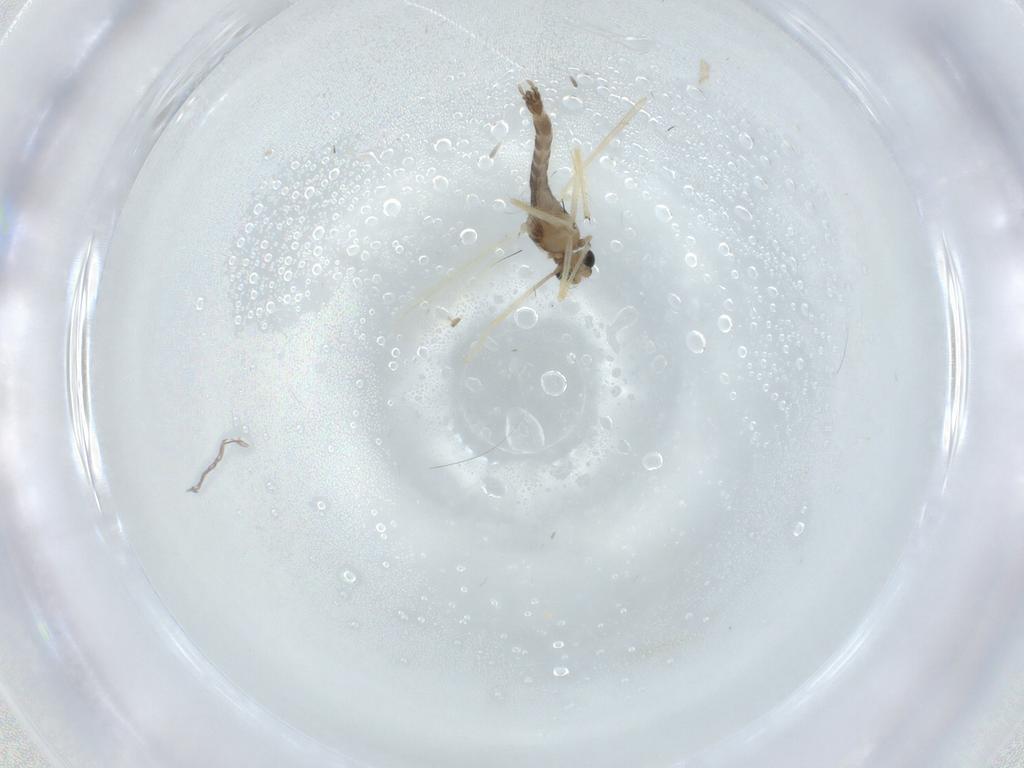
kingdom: Animalia
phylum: Arthropoda
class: Insecta
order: Diptera
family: Chironomidae
